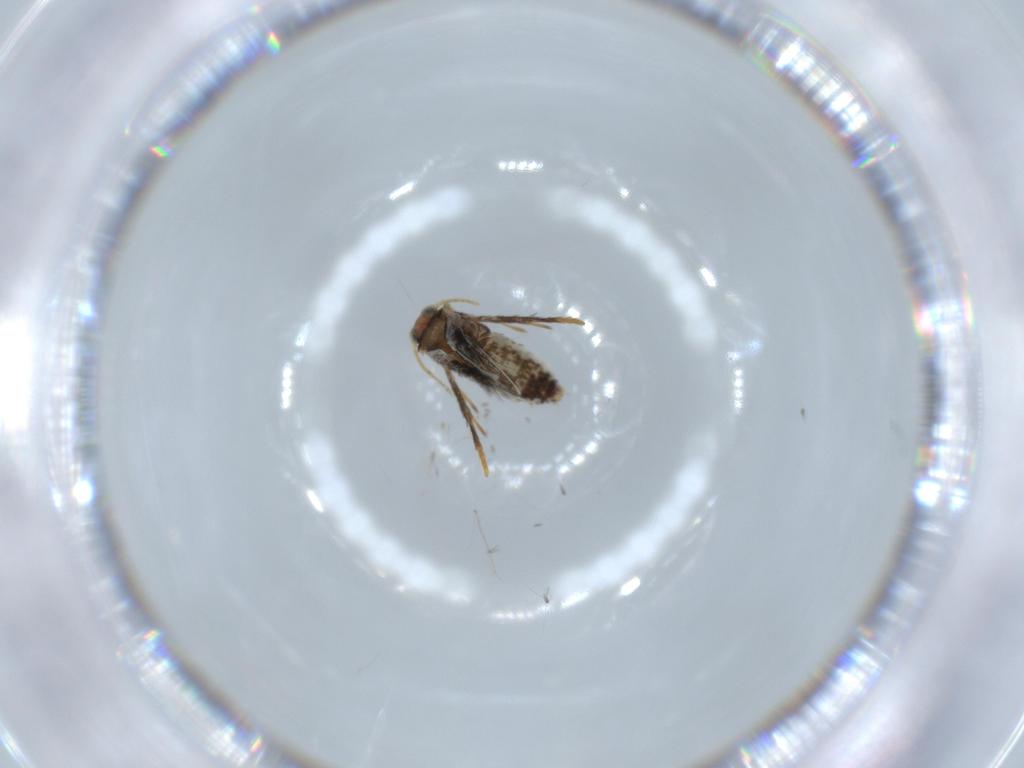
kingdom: Animalia
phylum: Arthropoda
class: Insecta
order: Lepidoptera
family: Nepticulidae
